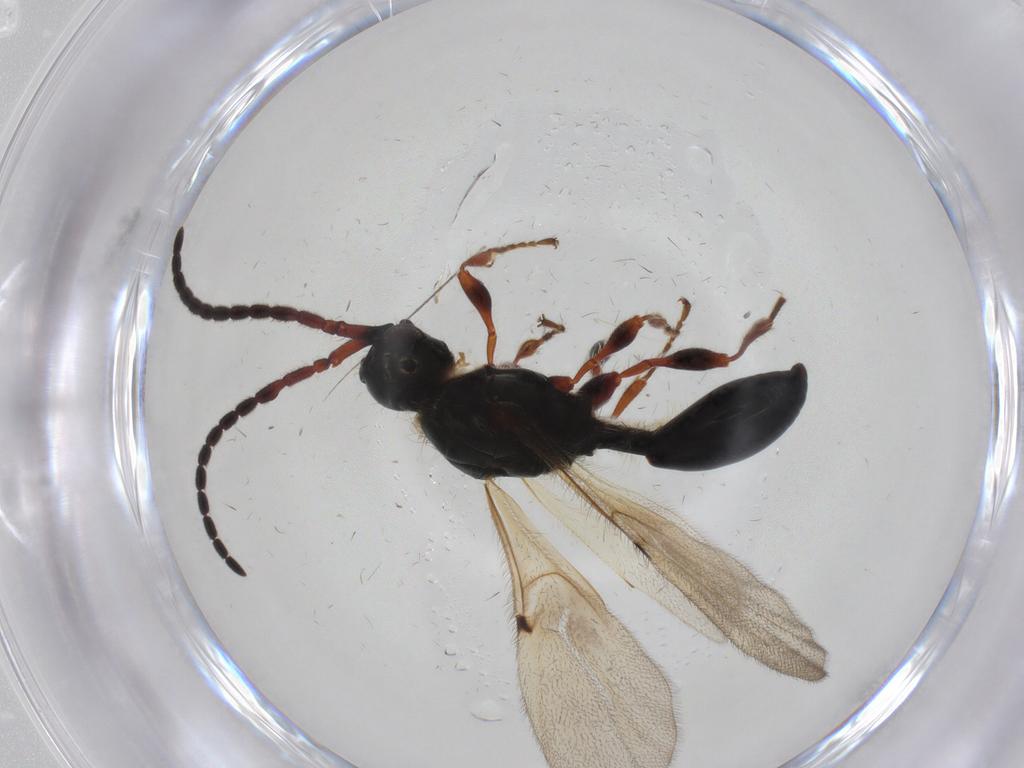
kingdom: Animalia
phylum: Arthropoda
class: Insecta
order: Hymenoptera
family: Diapriidae
